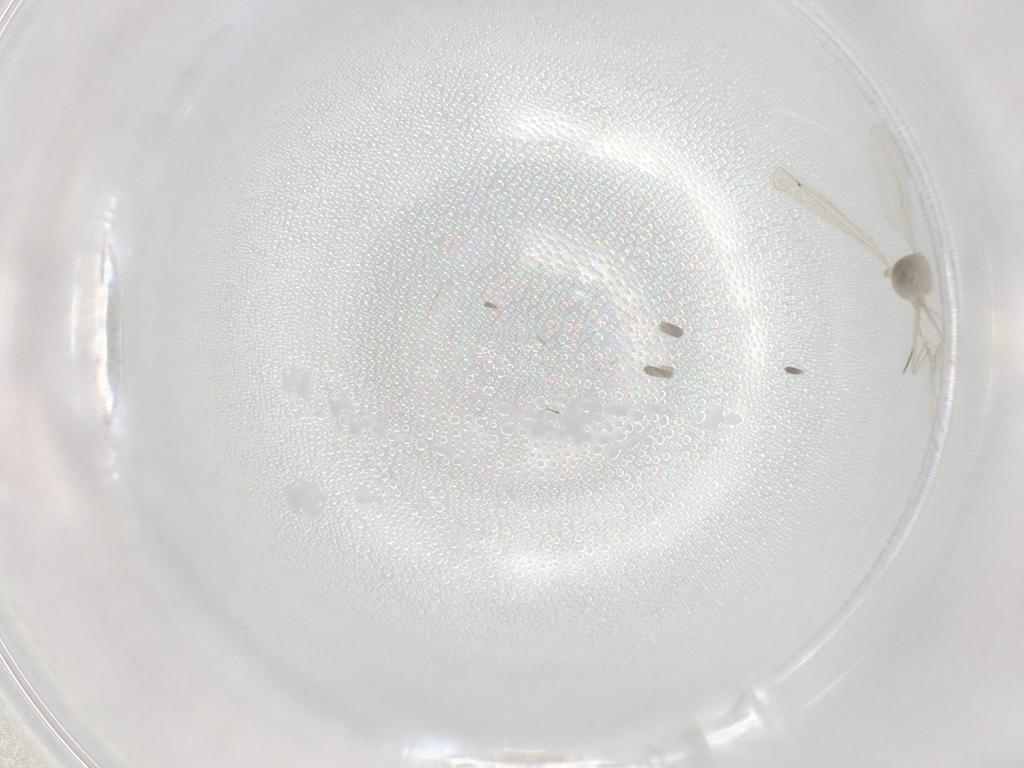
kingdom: Animalia
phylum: Arthropoda
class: Insecta
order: Diptera
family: Cecidomyiidae
